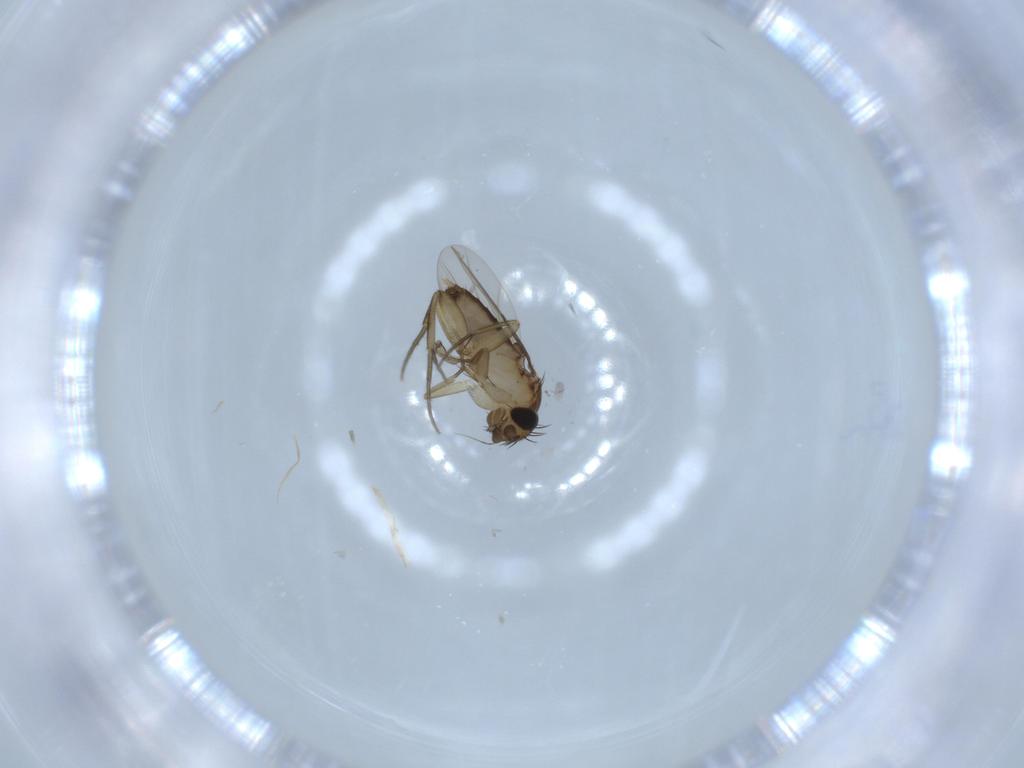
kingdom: Animalia
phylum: Arthropoda
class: Insecta
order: Diptera
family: Phoridae
